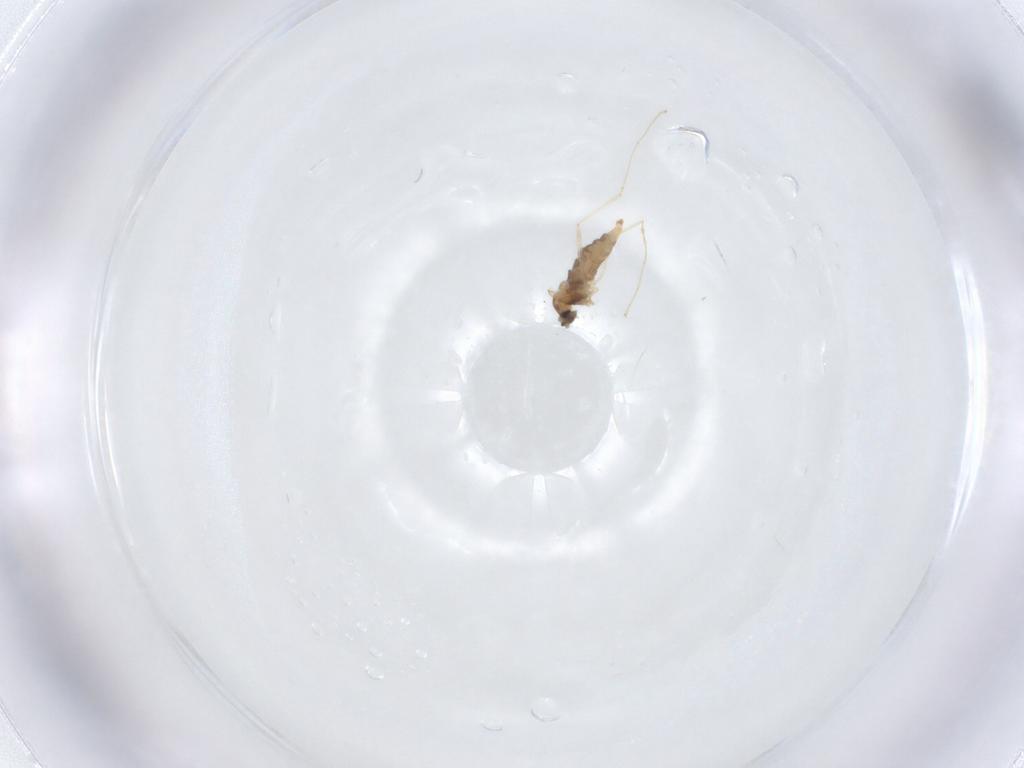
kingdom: Animalia
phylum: Arthropoda
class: Insecta
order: Diptera
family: Cecidomyiidae
